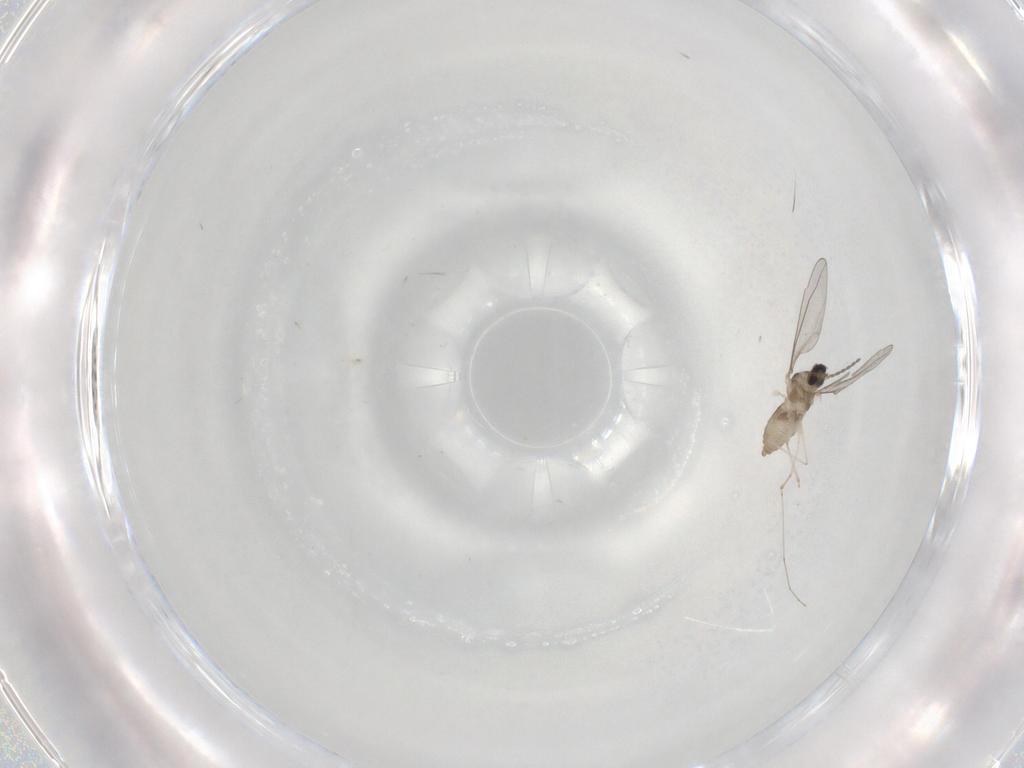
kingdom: Animalia
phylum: Arthropoda
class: Insecta
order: Diptera
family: Cecidomyiidae
